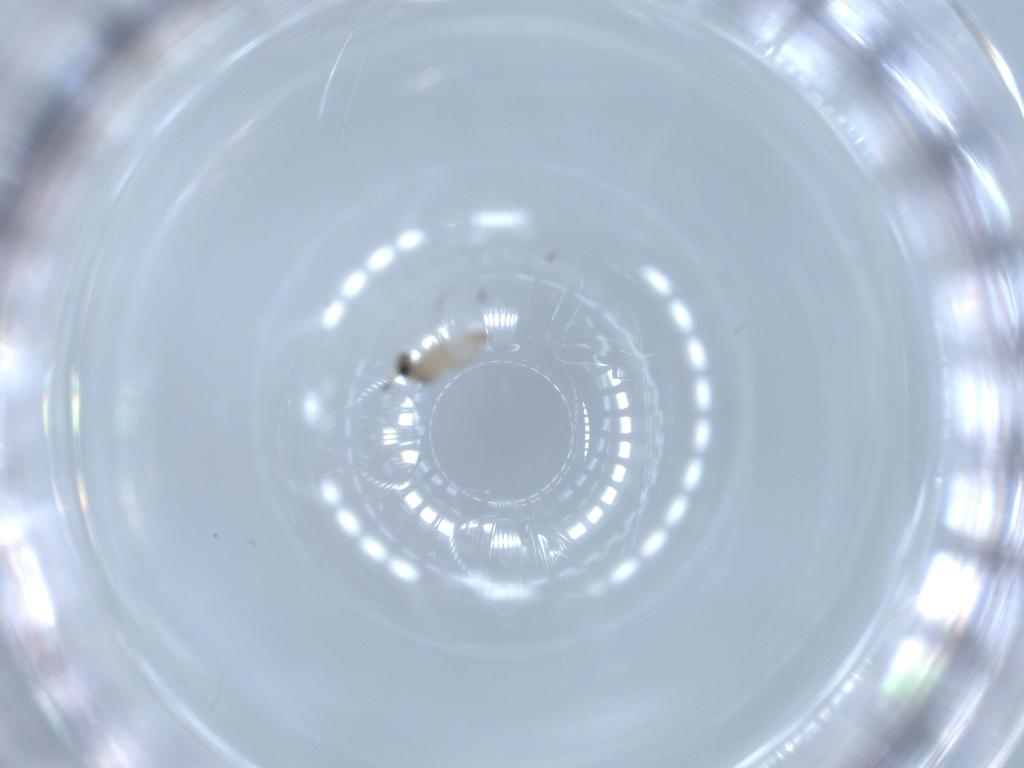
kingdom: Animalia
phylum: Arthropoda
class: Insecta
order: Diptera
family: Cecidomyiidae
